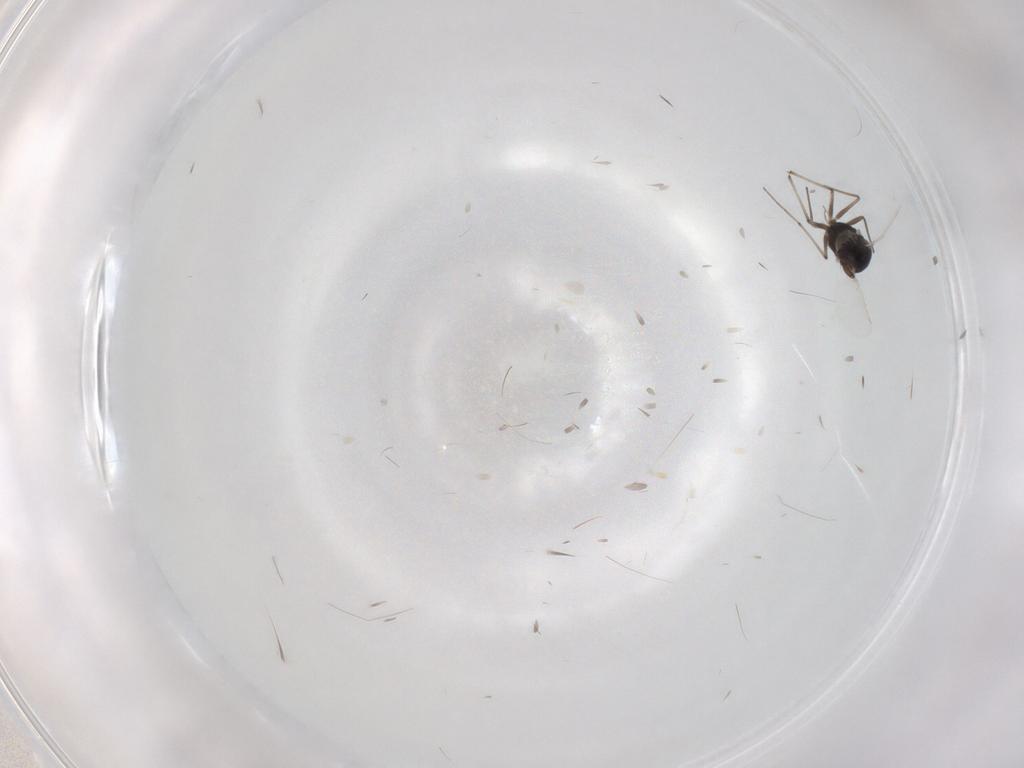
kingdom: Animalia
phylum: Arthropoda
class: Insecta
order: Diptera
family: Chironomidae
